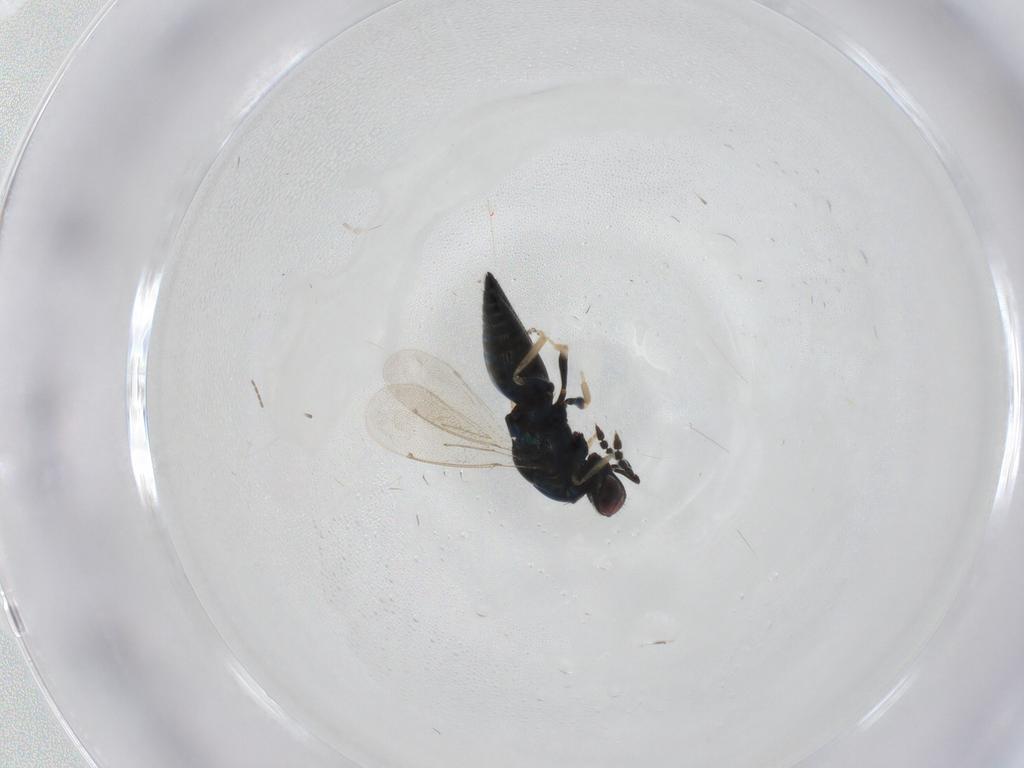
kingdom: Animalia
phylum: Arthropoda
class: Insecta
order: Hymenoptera
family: Eulophidae
